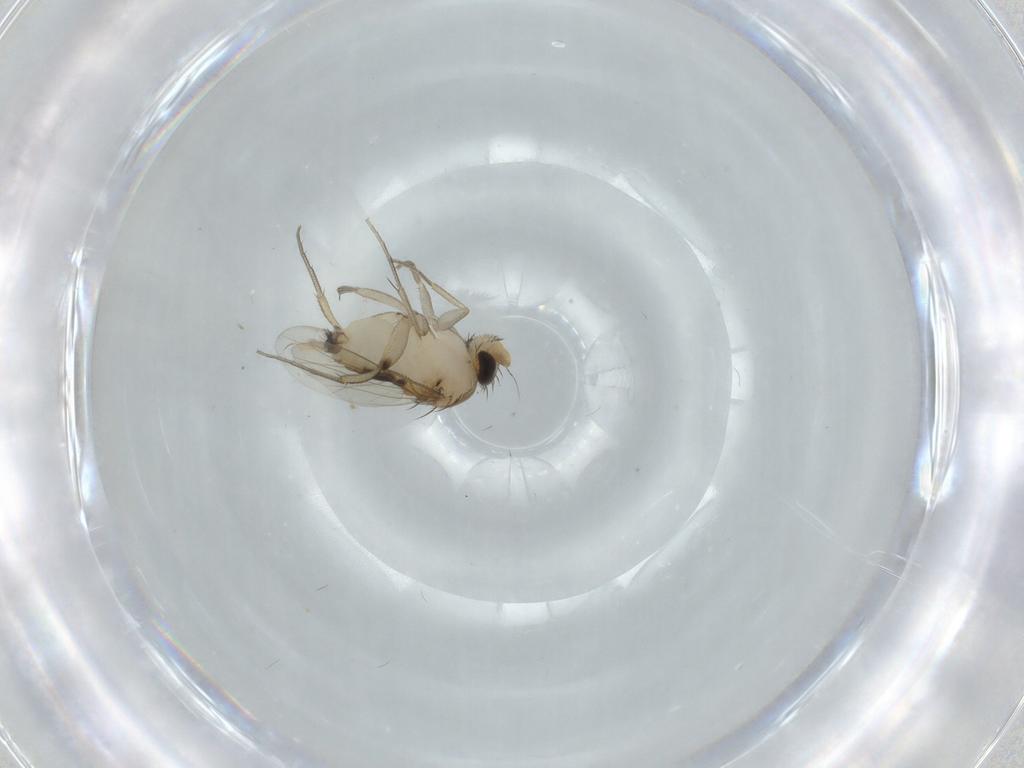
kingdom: Animalia
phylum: Arthropoda
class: Insecta
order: Diptera
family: Phoridae
